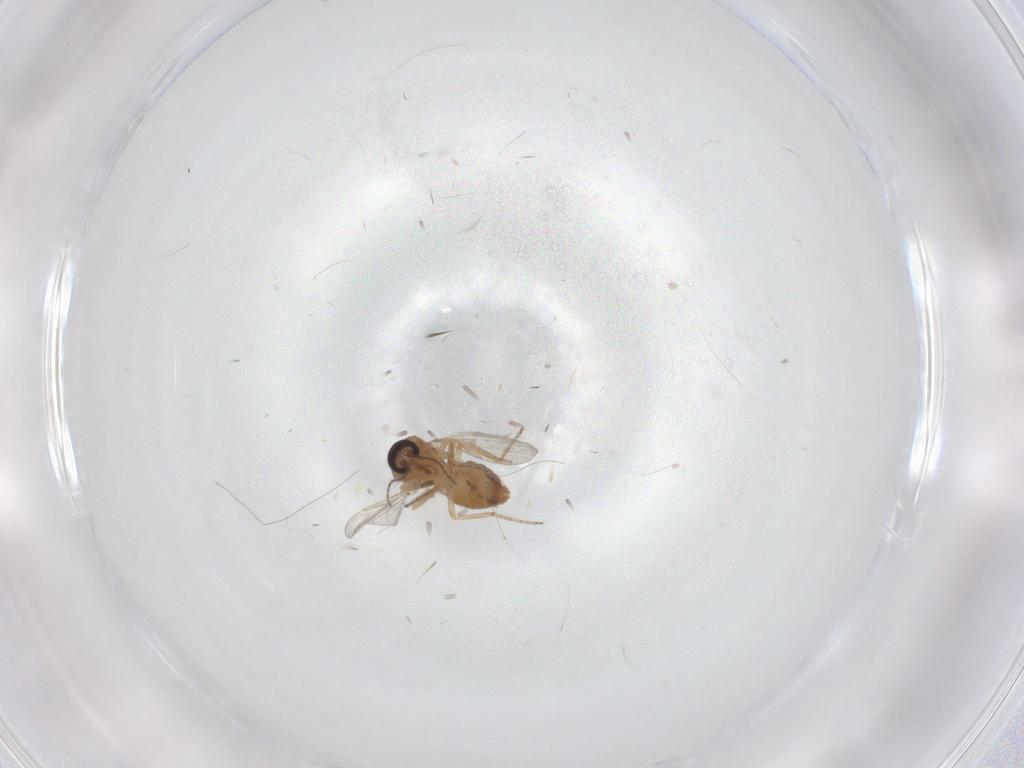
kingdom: Animalia
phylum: Arthropoda
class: Insecta
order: Diptera
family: Ceratopogonidae
